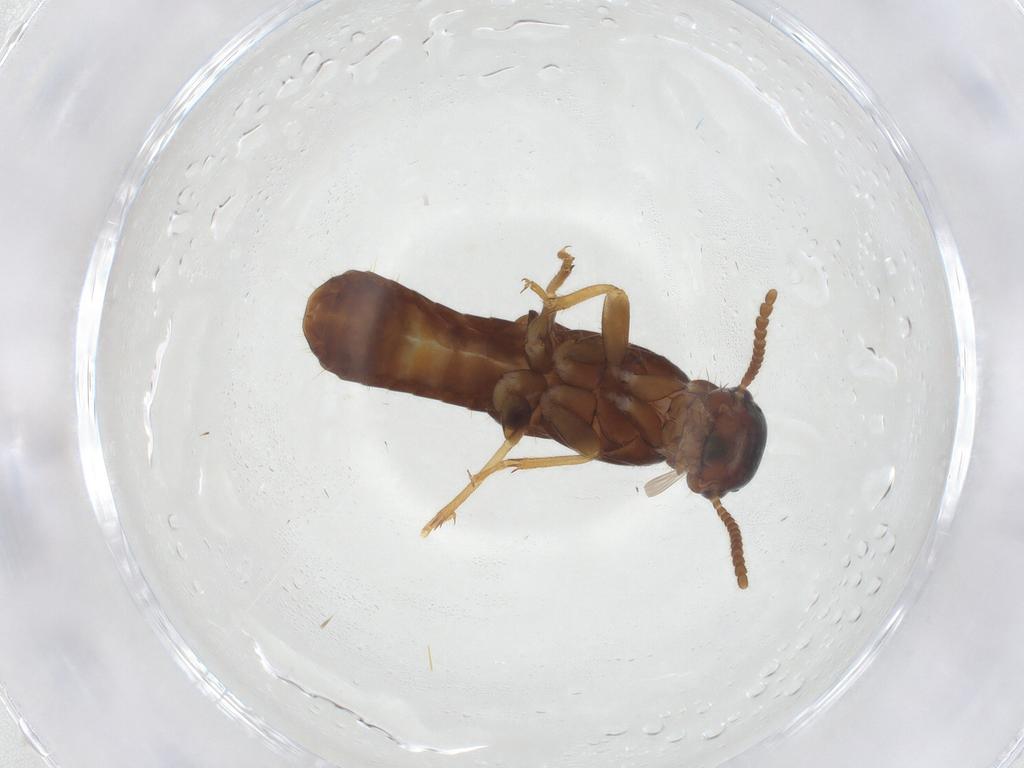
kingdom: Animalia
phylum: Arthropoda
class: Insecta
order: Blattodea
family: Kalotermitidae
